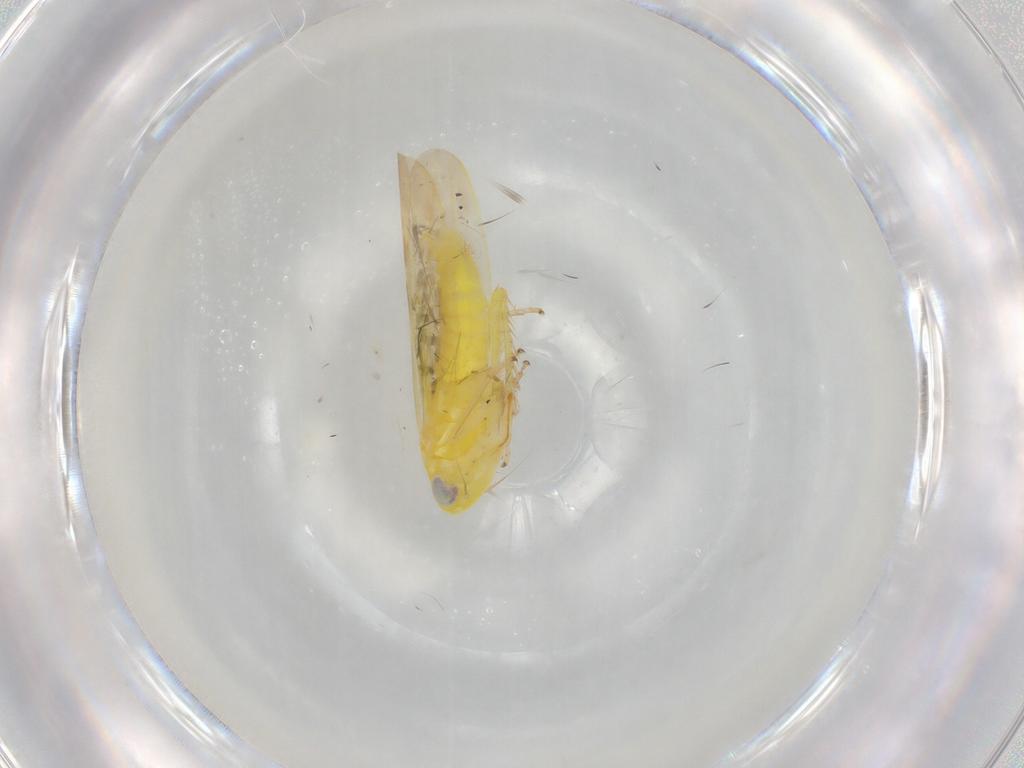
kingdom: Animalia
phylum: Arthropoda
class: Insecta
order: Hemiptera
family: Cicadellidae
